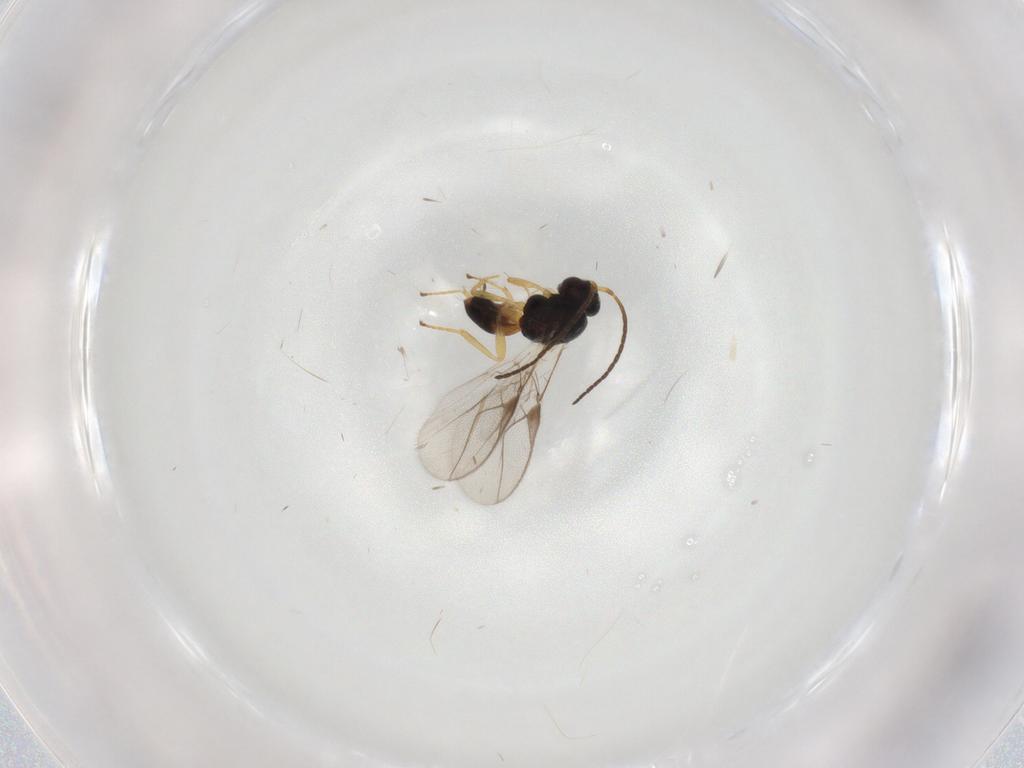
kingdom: Animalia
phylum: Arthropoda
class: Insecta
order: Hymenoptera
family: Braconidae
